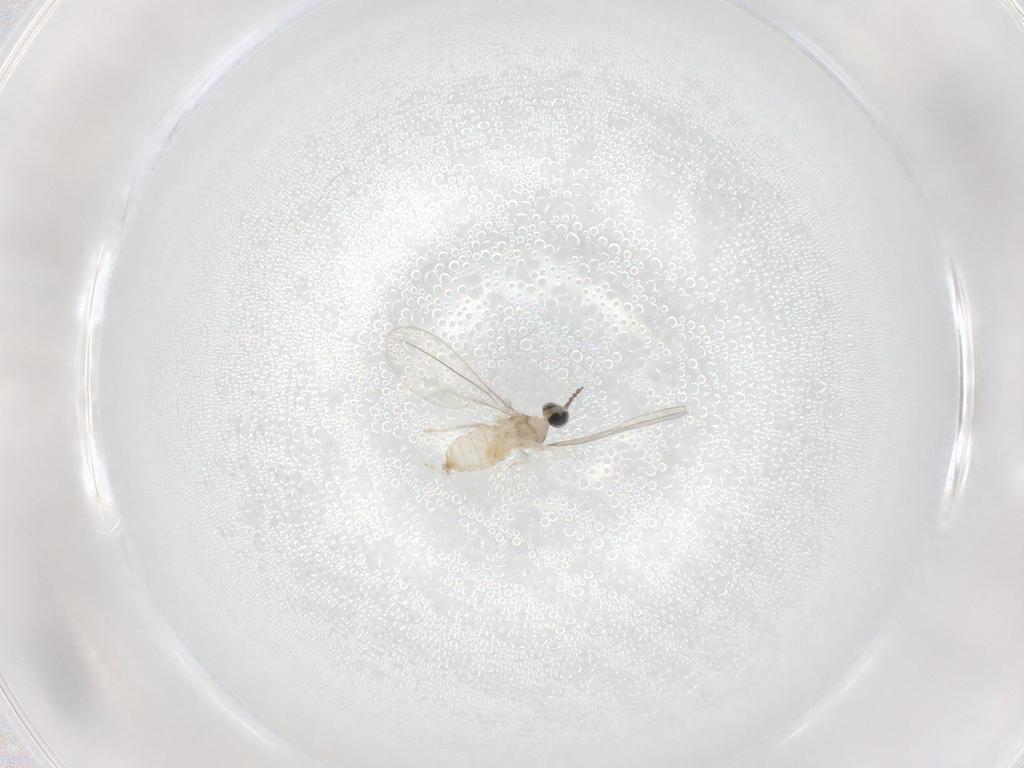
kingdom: Animalia
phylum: Arthropoda
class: Insecta
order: Diptera
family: Cecidomyiidae
